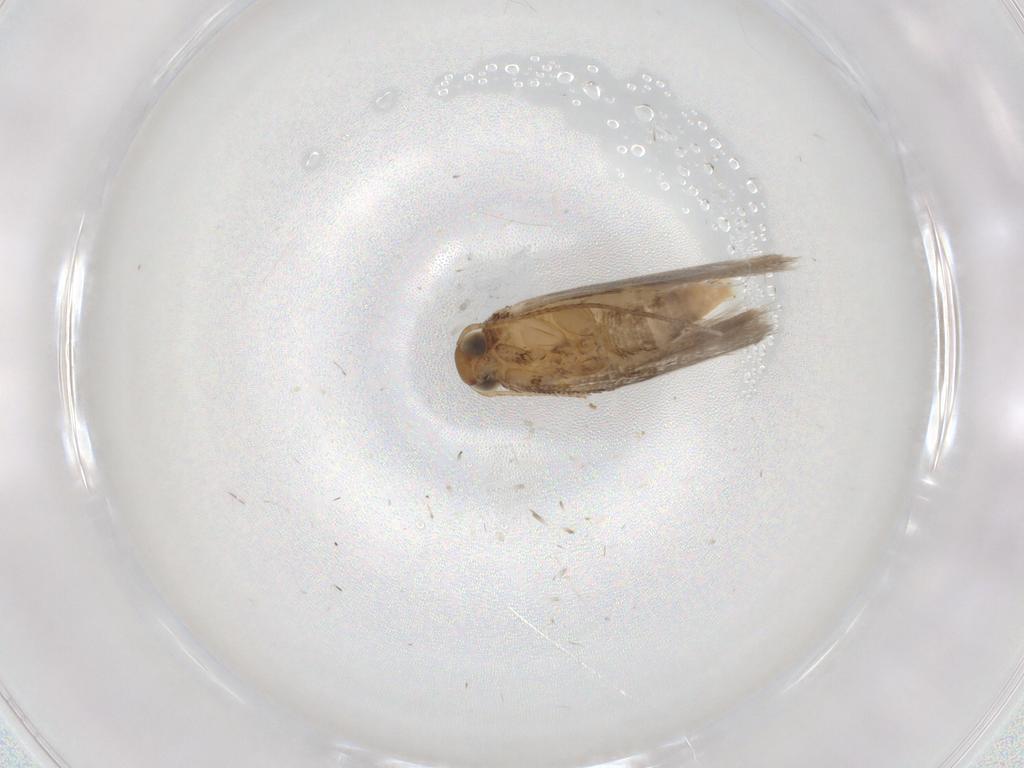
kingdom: Animalia
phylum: Arthropoda
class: Insecta
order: Lepidoptera
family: Gelechiidae
